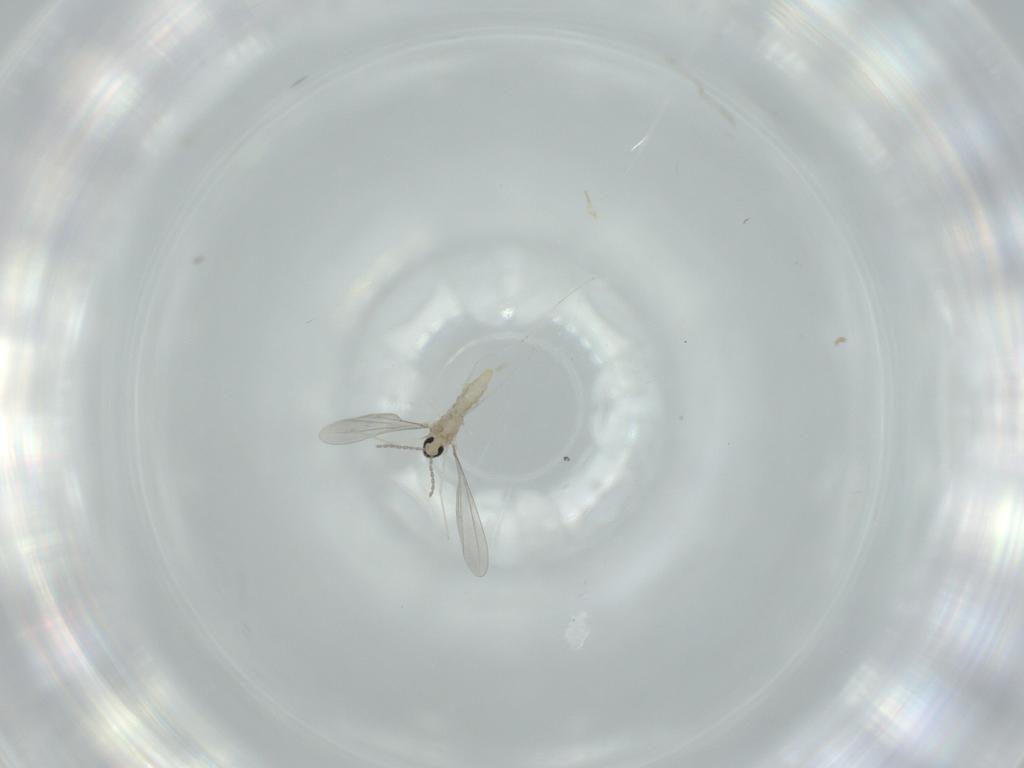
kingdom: Animalia
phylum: Arthropoda
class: Insecta
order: Diptera
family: Cecidomyiidae
